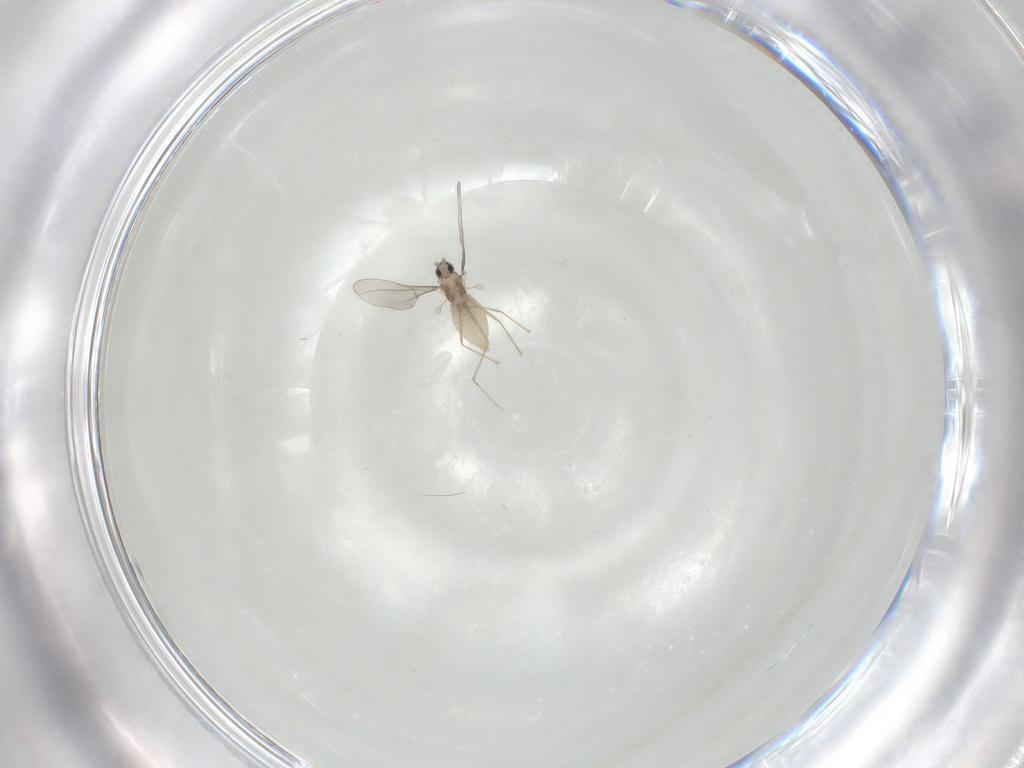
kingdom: Animalia
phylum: Arthropoda
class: Insecta
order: Diptera
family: Cecidomyiidae
